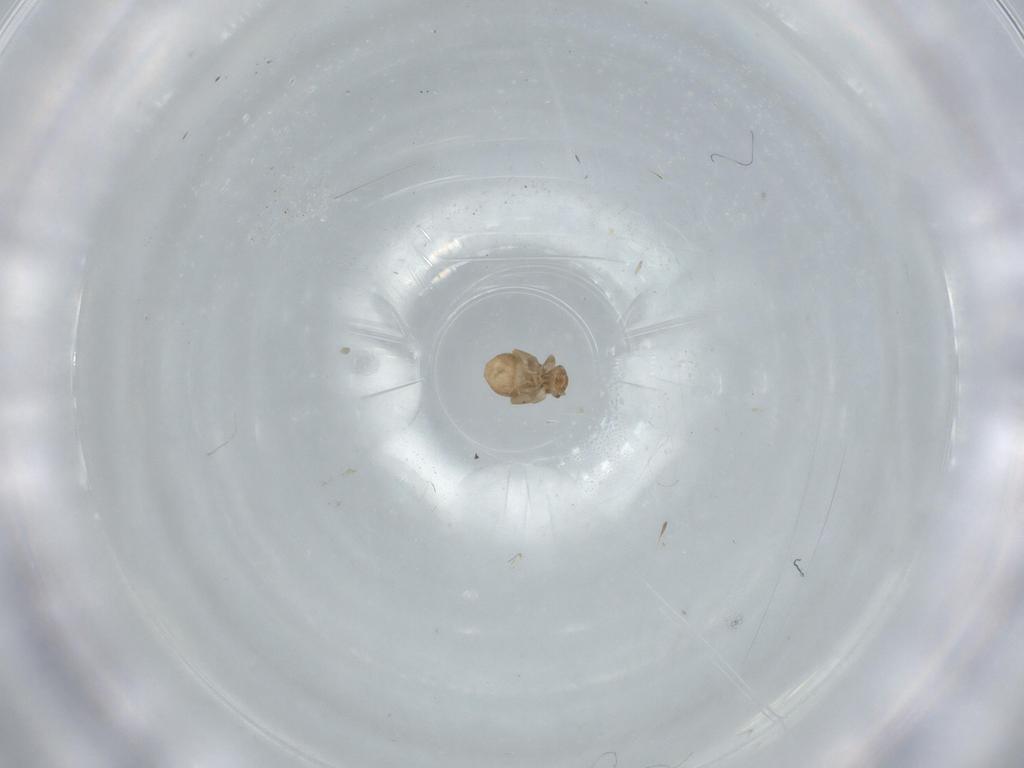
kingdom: Animalia
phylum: Arthropoda
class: Insecta
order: Psocodea
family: Liposcelididae
